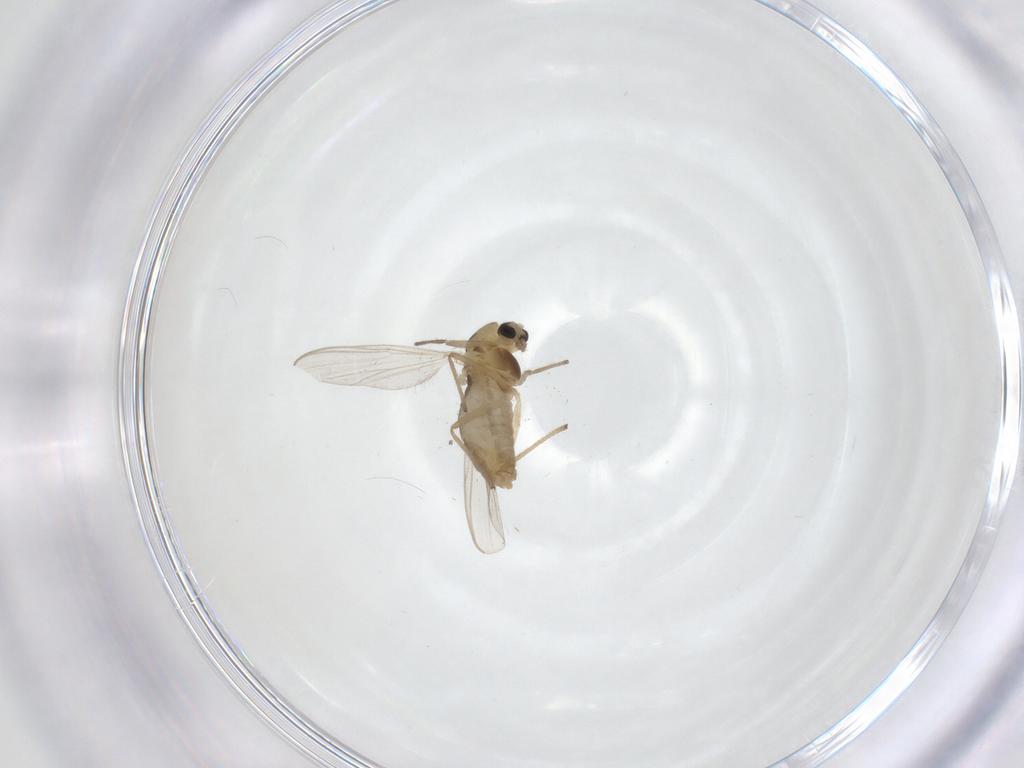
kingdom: Animalia
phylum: Arthropoda
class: Insecta
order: Diptera
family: Chironomidae
